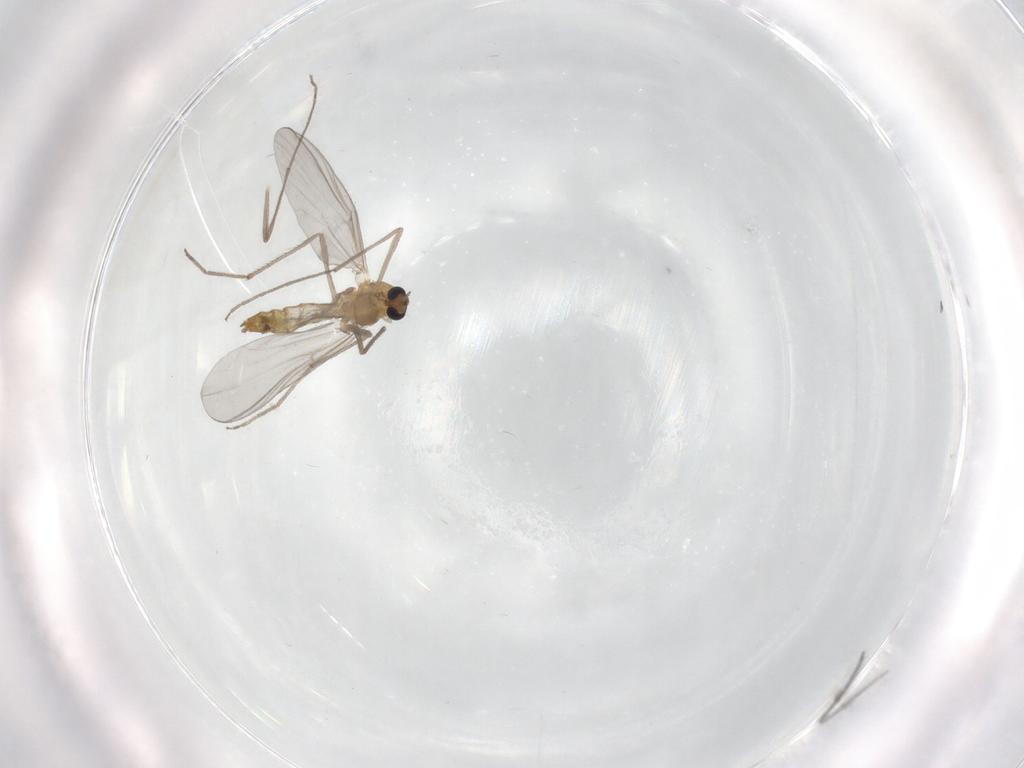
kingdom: Animalia
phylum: Arthropoda
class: Insecta
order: Diptera
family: Chironomidae
